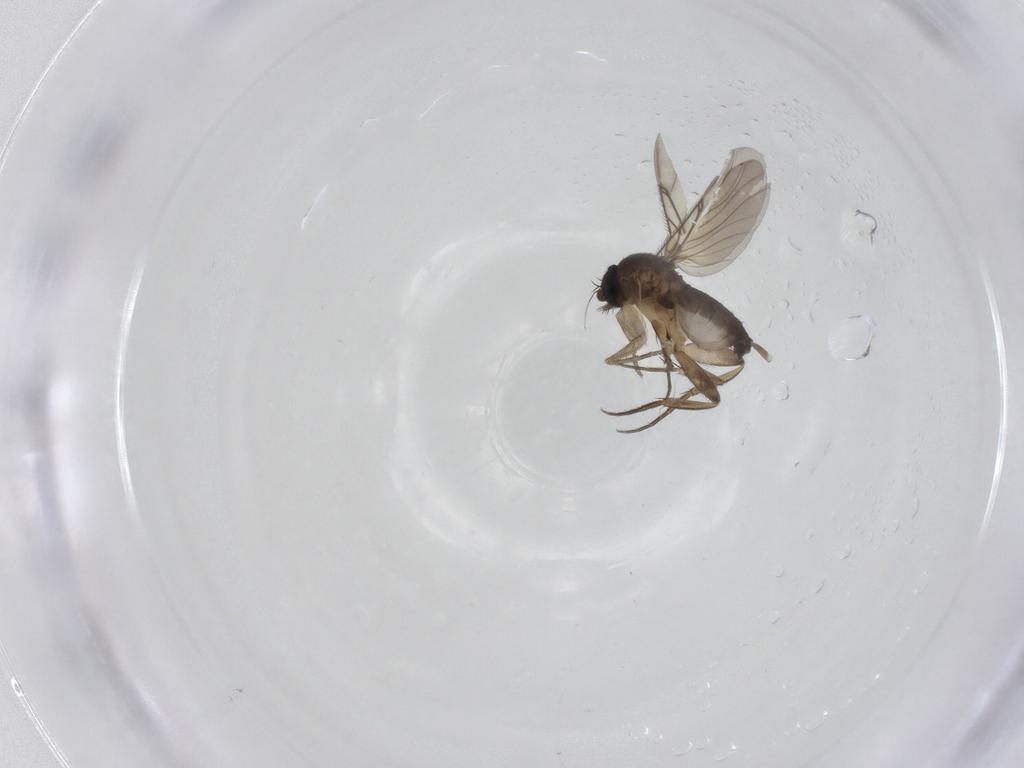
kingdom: Animalia
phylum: Arthropoda
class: Insecta
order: Diptera
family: Phoridae
